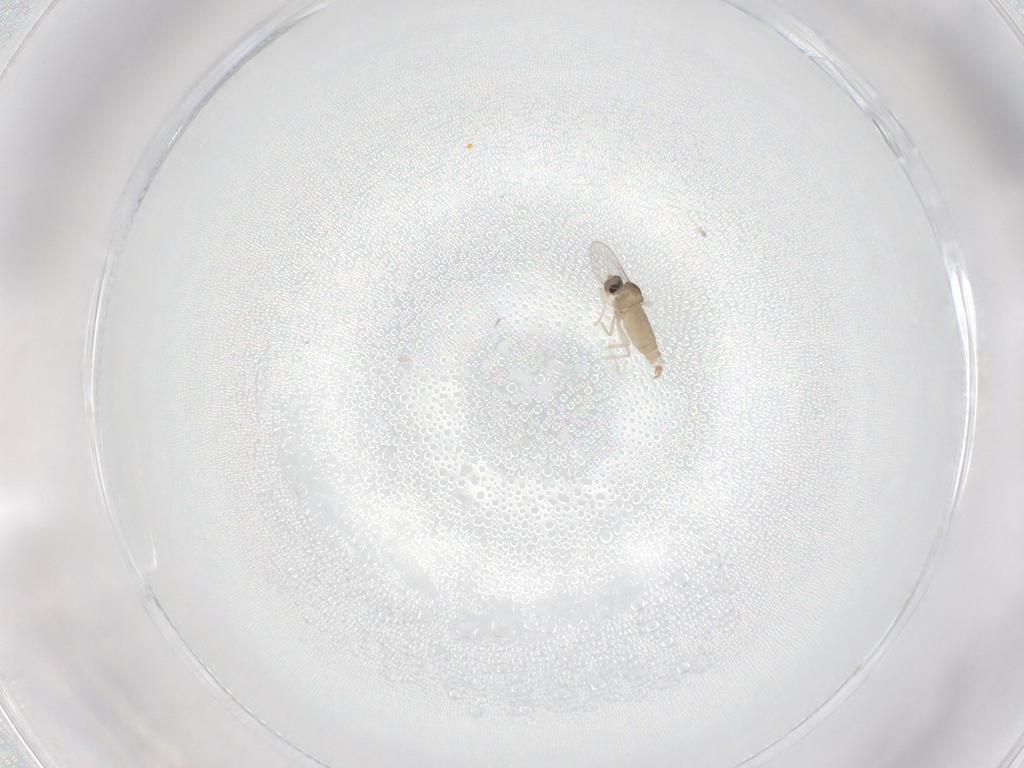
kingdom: Animalia
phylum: Arthropoda
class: Insecta
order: Diptera
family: Cecidomyiidae
